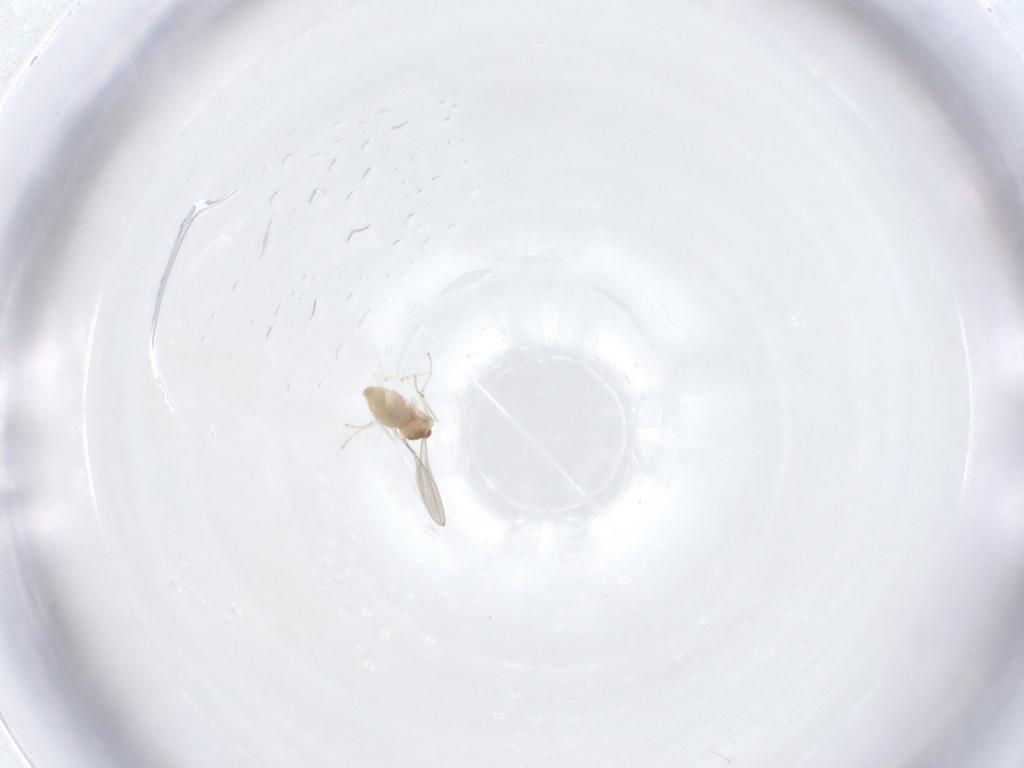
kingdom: Animalia
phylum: Arthropoda
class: Insecta
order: Diptera
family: Cecidomyiidae
